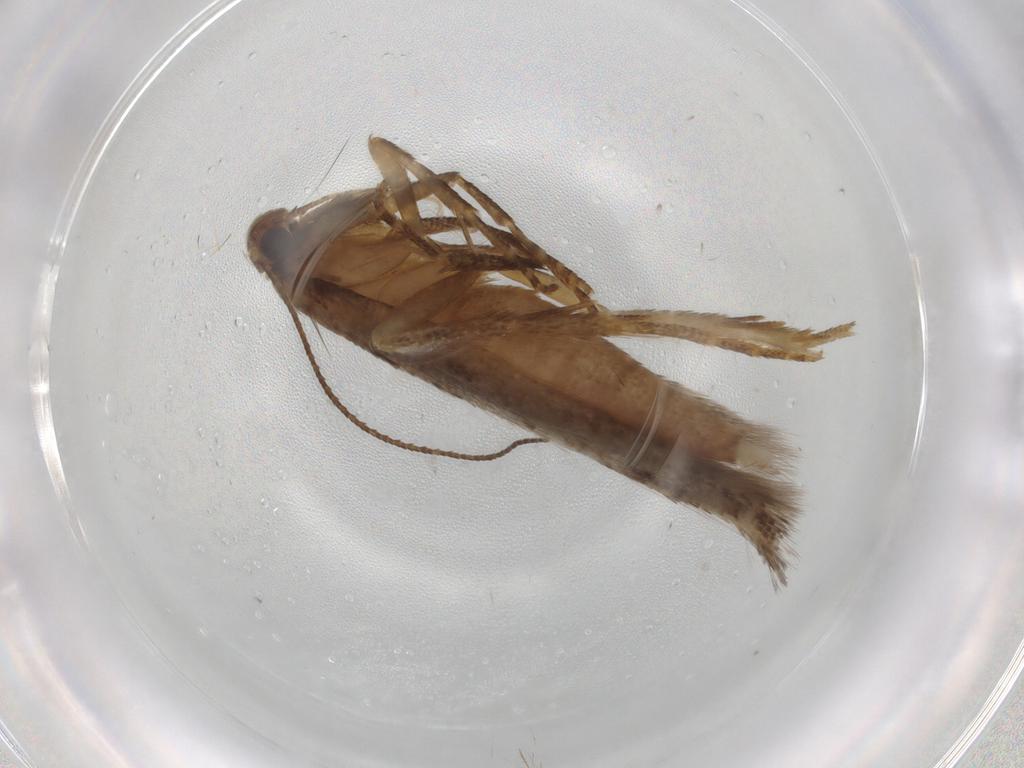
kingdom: Animalia
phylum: Arthropoda
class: Insecta
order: Lepidoptera
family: Gelechiidae
